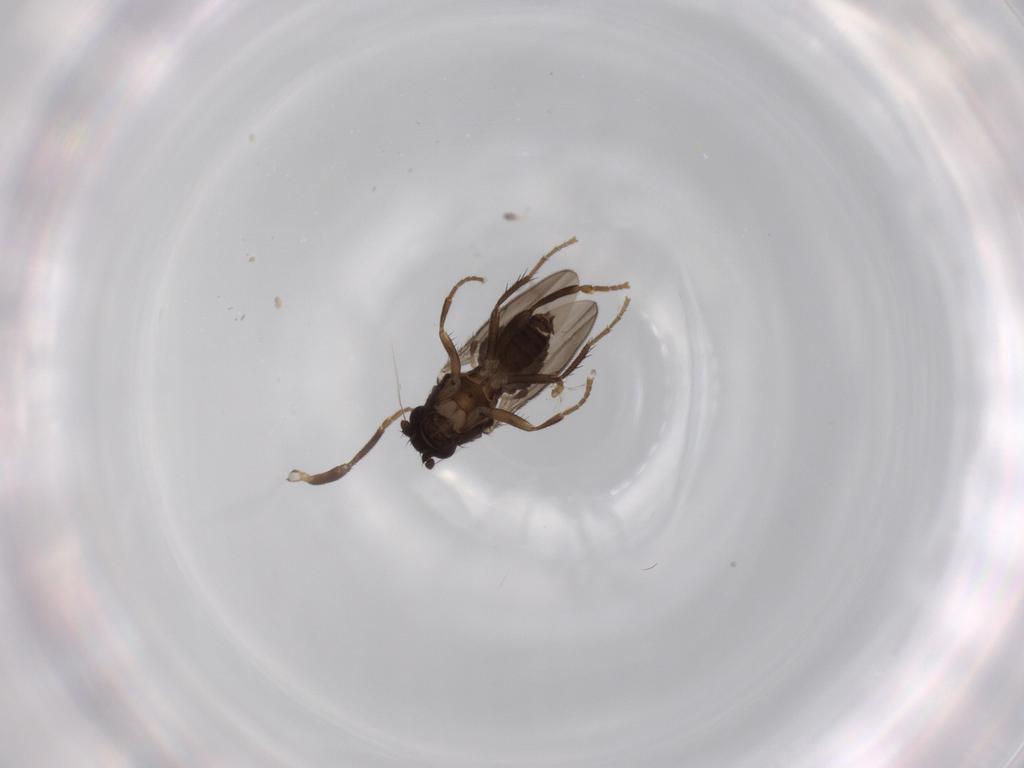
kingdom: Animalia
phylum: Arthropoda
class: Insecta
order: Diptera
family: Sphaeroceridae
